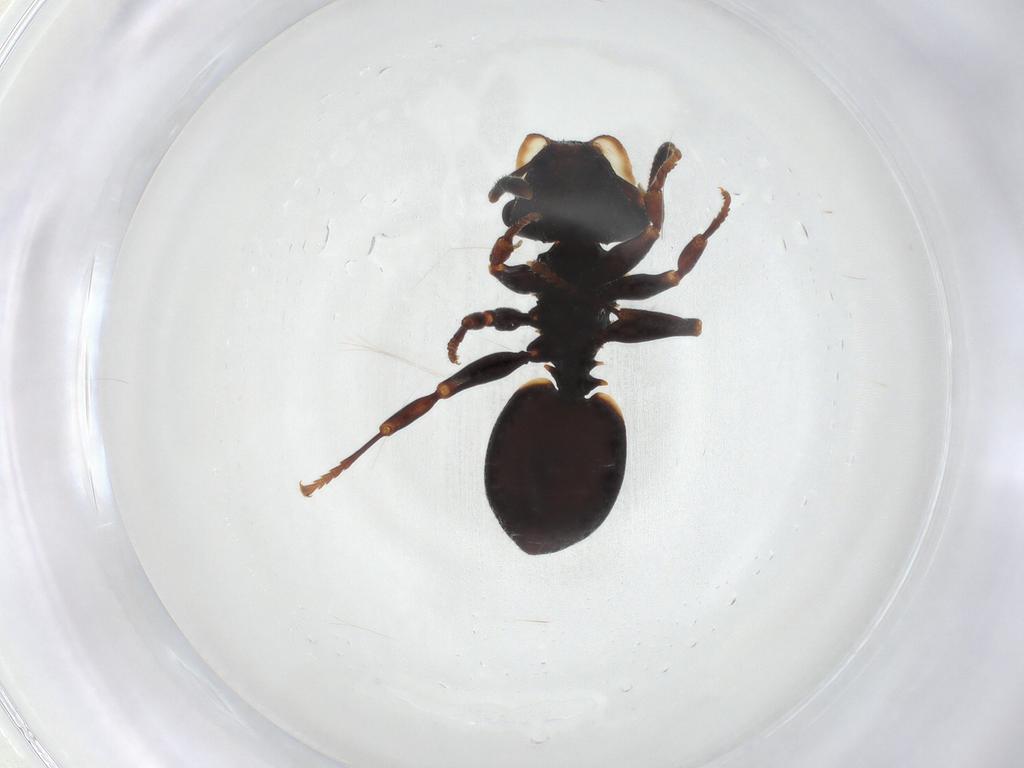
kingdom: Animalia
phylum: Arthropoda
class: Insecta
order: Hymenoptera
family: Formicidae
